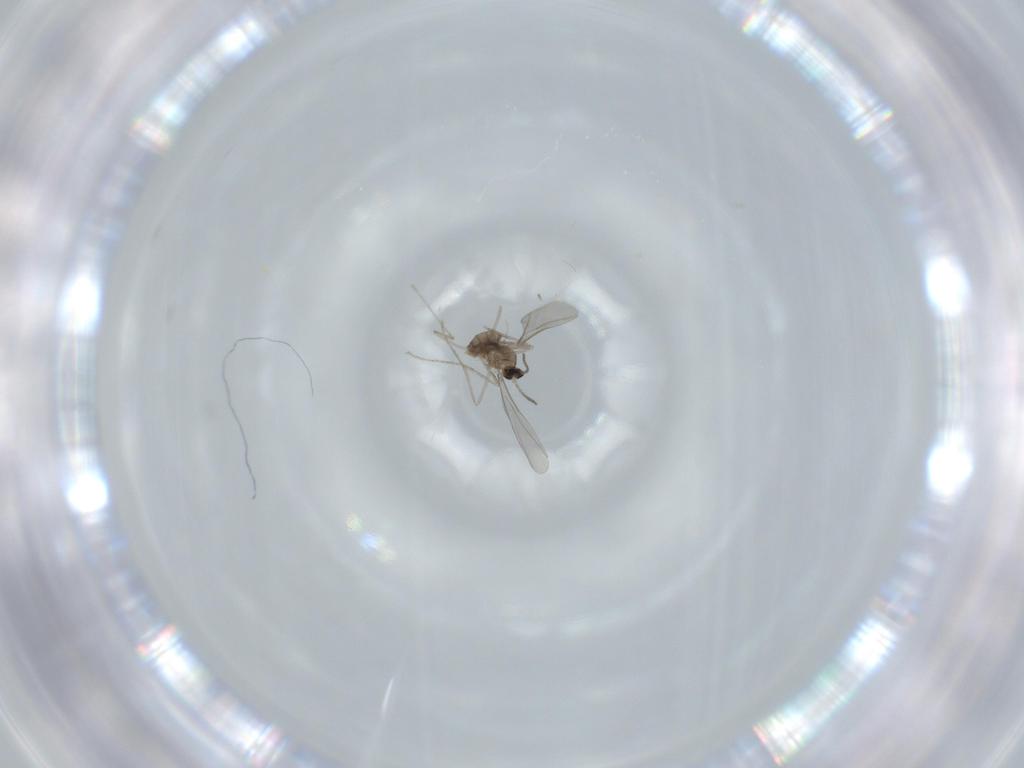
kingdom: Animalia
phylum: Arthropoda
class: Insecta
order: Diptera
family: Cecidomyiidae
